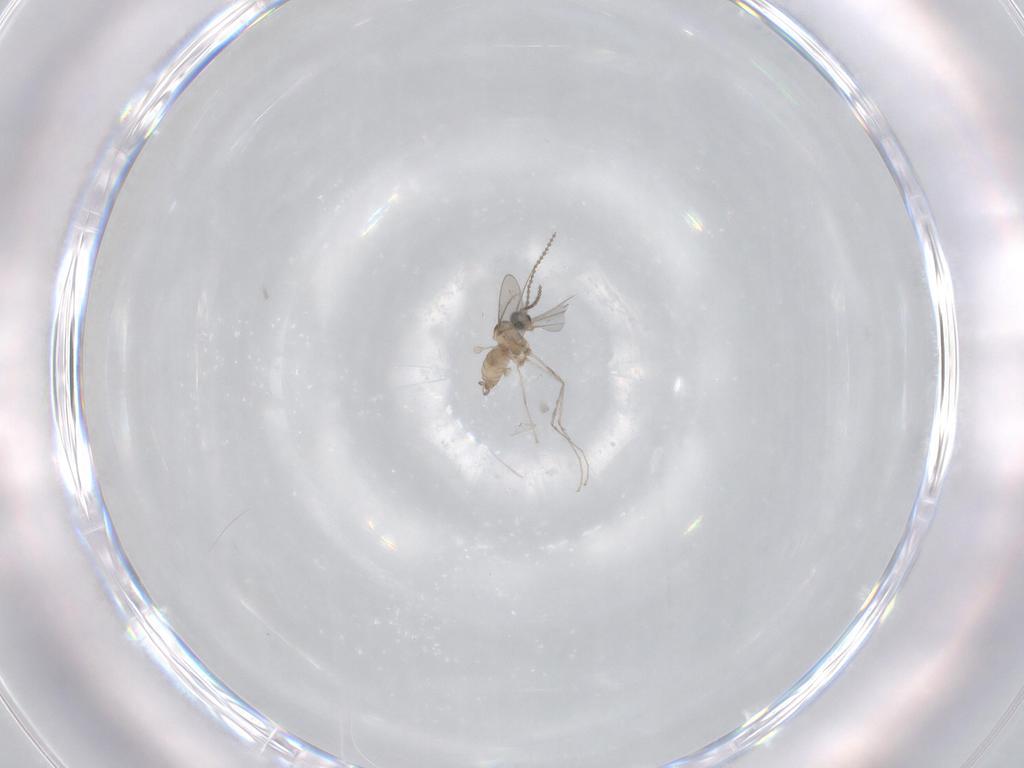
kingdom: Animalia
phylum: Arthropoda
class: Insecta
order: Diptera
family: Cecidomyiidae
